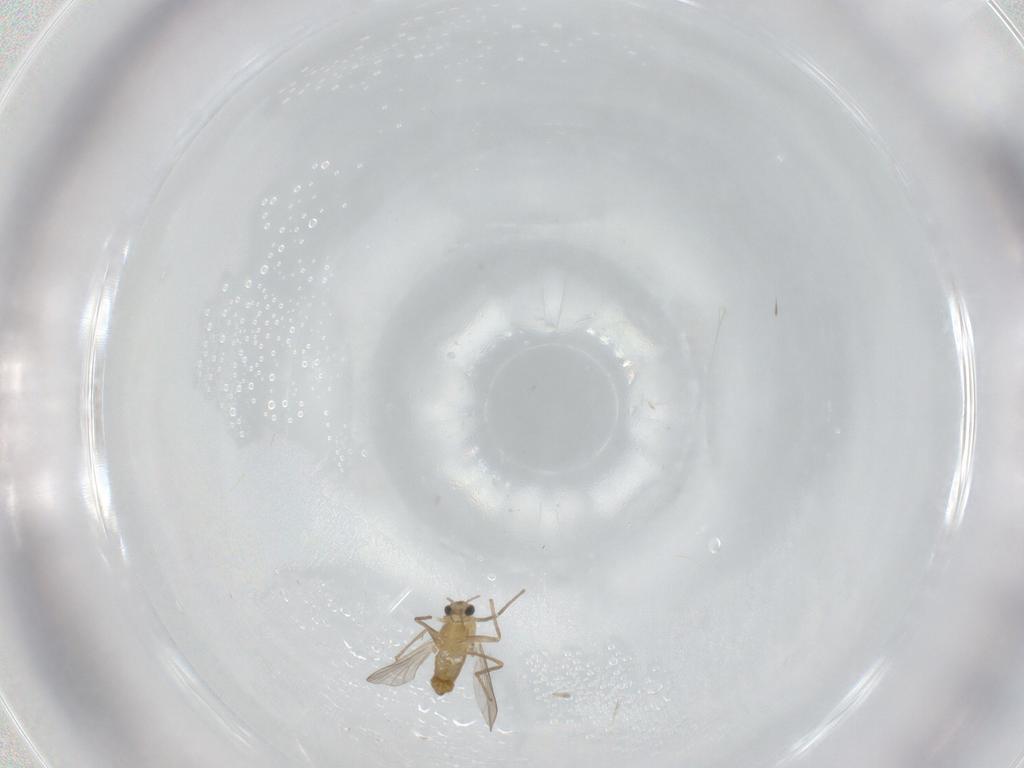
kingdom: Animalia
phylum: Arthropoda
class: Insecta
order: Diptera
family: Chironomidae
